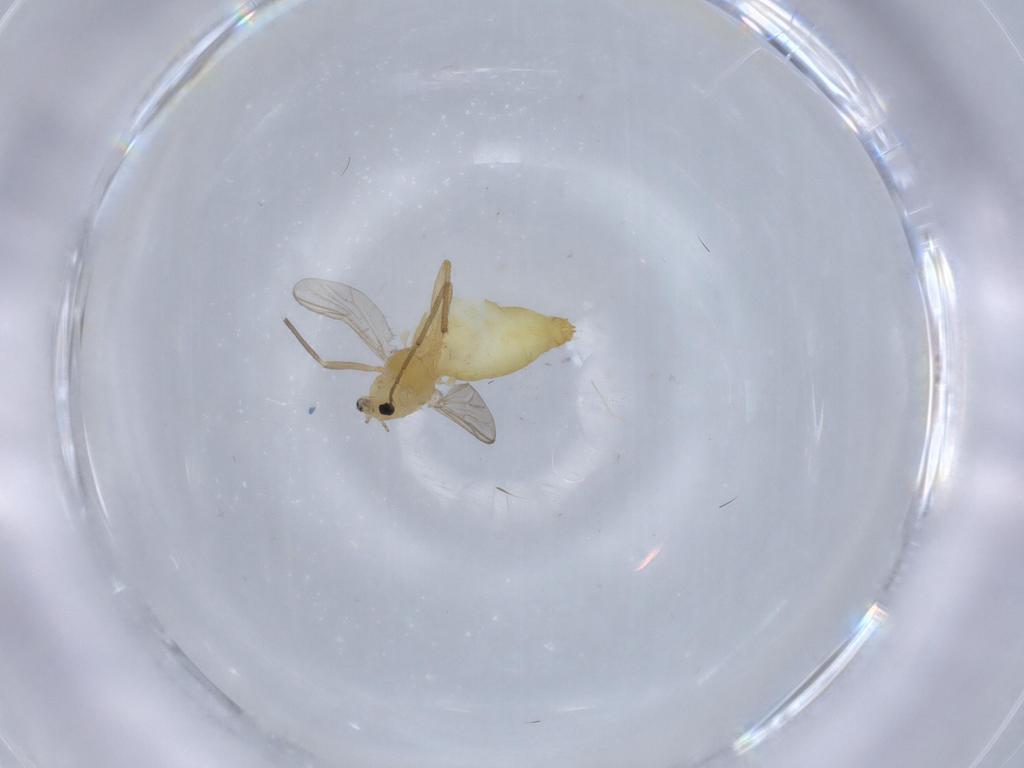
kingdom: Animalia
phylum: Arthropoda
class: Insecta
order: Diptera
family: Chironomidae
